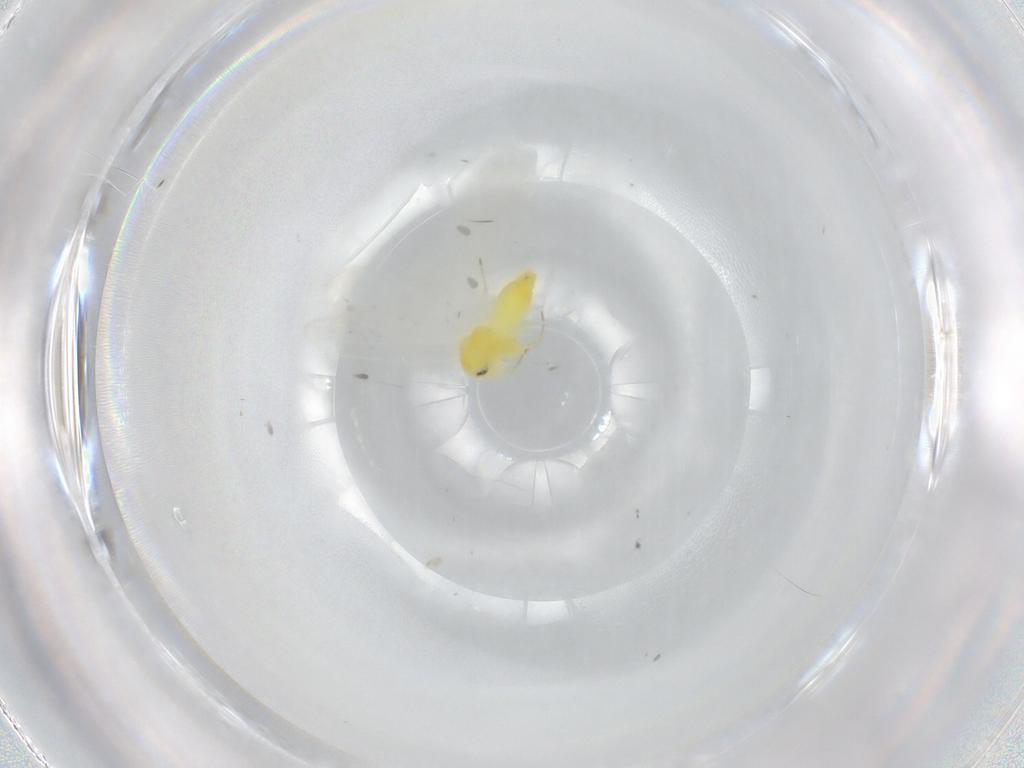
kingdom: Animalia
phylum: Arthropoda
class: Insecta
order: Hemiptera
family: Aleyrodidae
